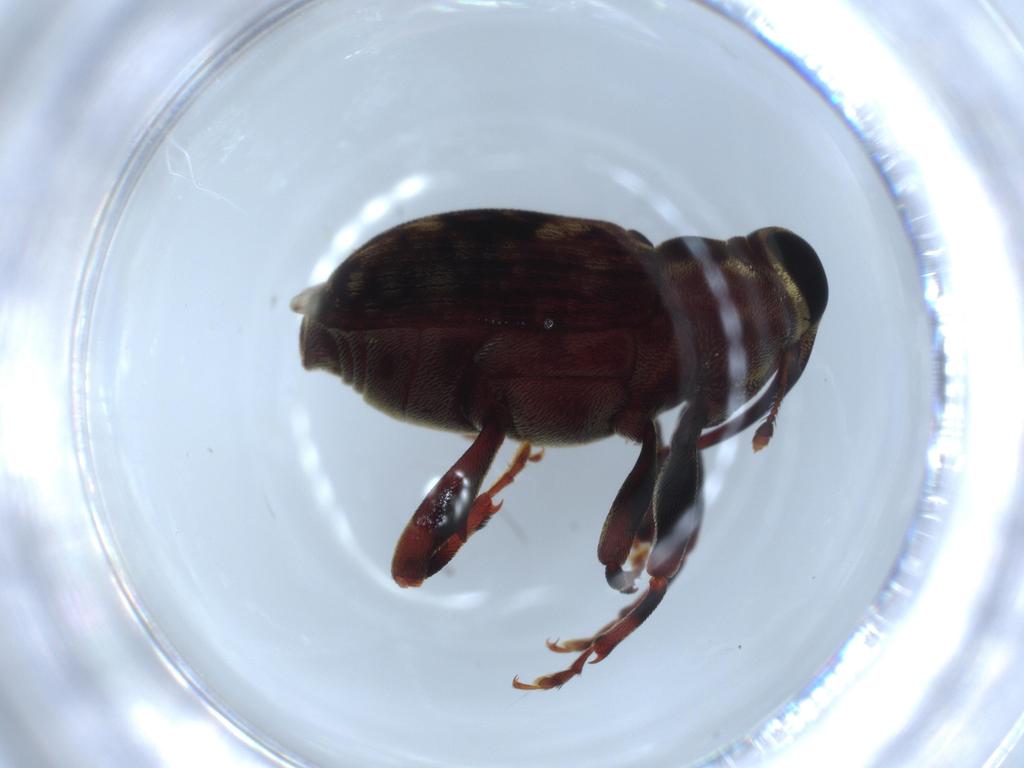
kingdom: Animalia
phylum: Arthropoda
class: Insecta
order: Coleoptera
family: Curculionidae
